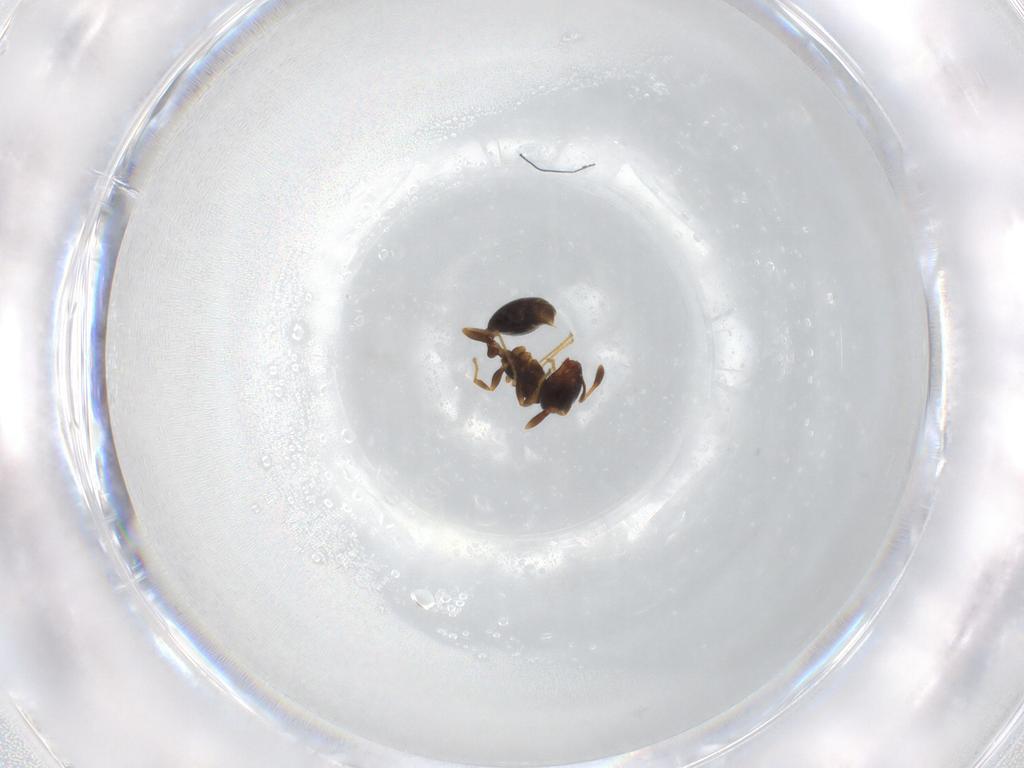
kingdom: Animalia
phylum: Arthropoda
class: Insecta
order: Hymenoptera
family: Formicidae
